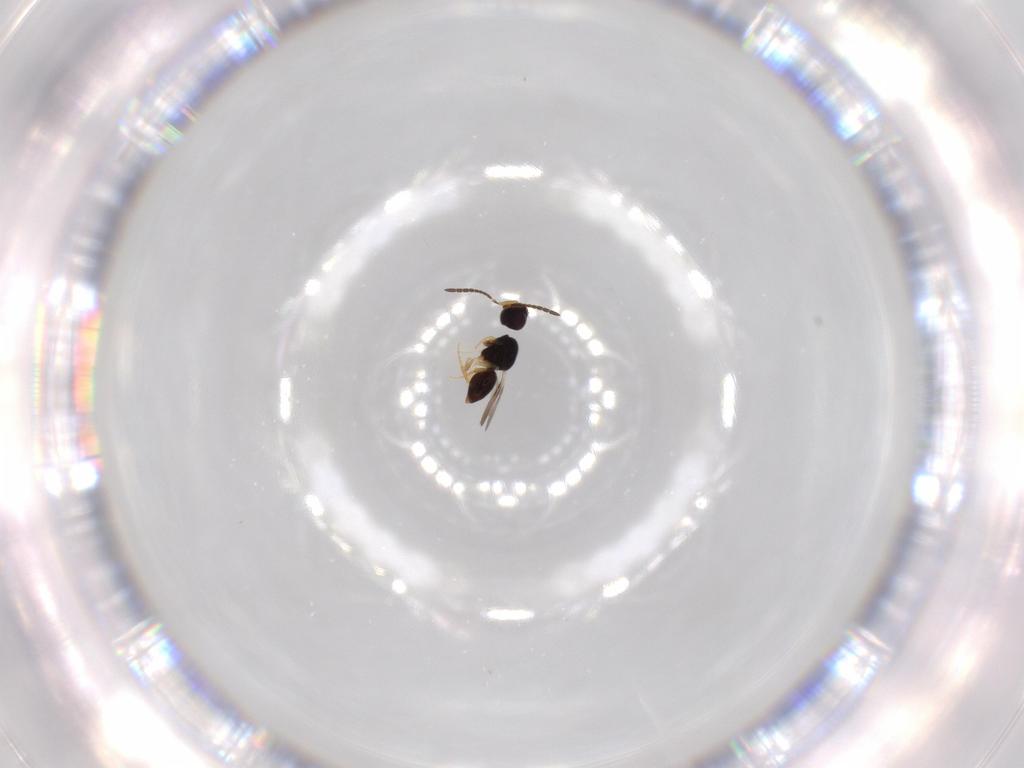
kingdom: Animalia
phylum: Arthropoda
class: Insecta
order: Hymenoptera
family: Ceraphronidae
